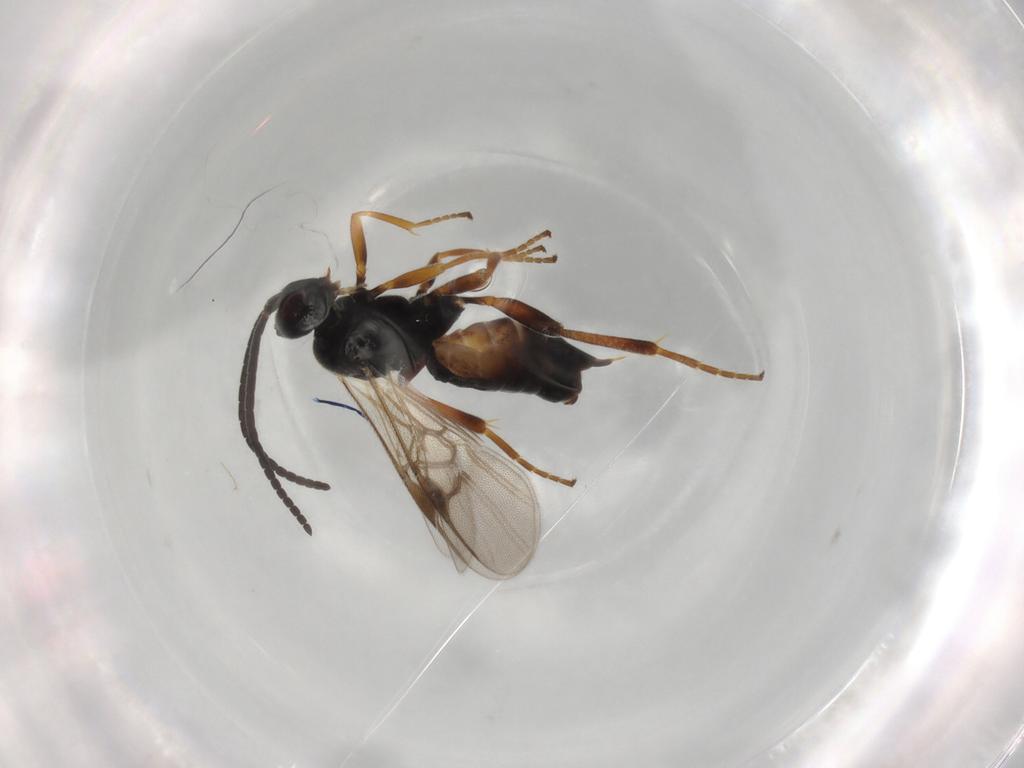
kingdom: Animalia
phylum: Arthropoda
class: Insecta
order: Hymenoptera
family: Braconidae
